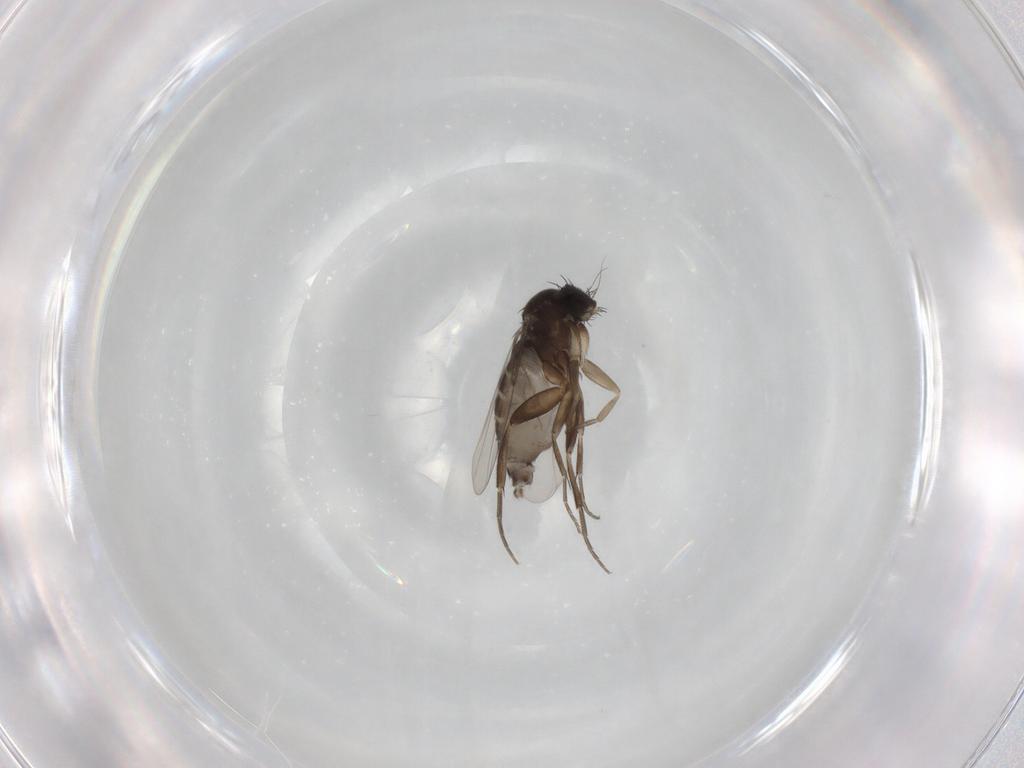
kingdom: Animalia
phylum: Arthropoda
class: Insecta
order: Diptera
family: Phoridae
